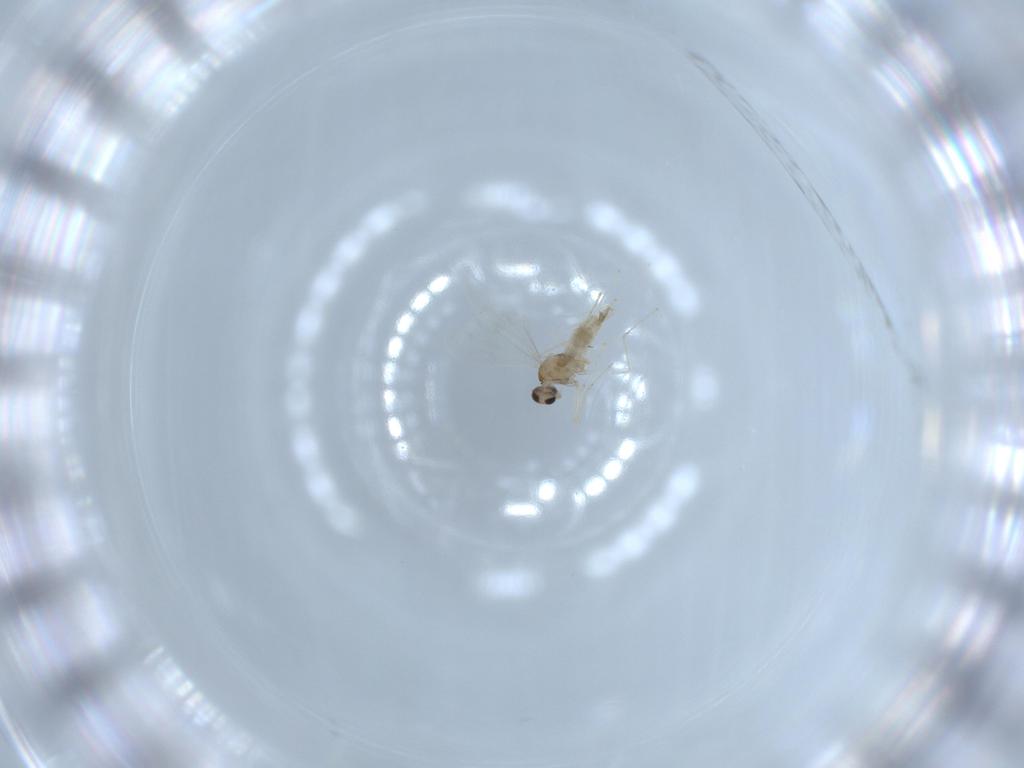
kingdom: Animalia
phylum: Arthropoda
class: Insecta
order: Diptera
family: Cecidomyiidae
